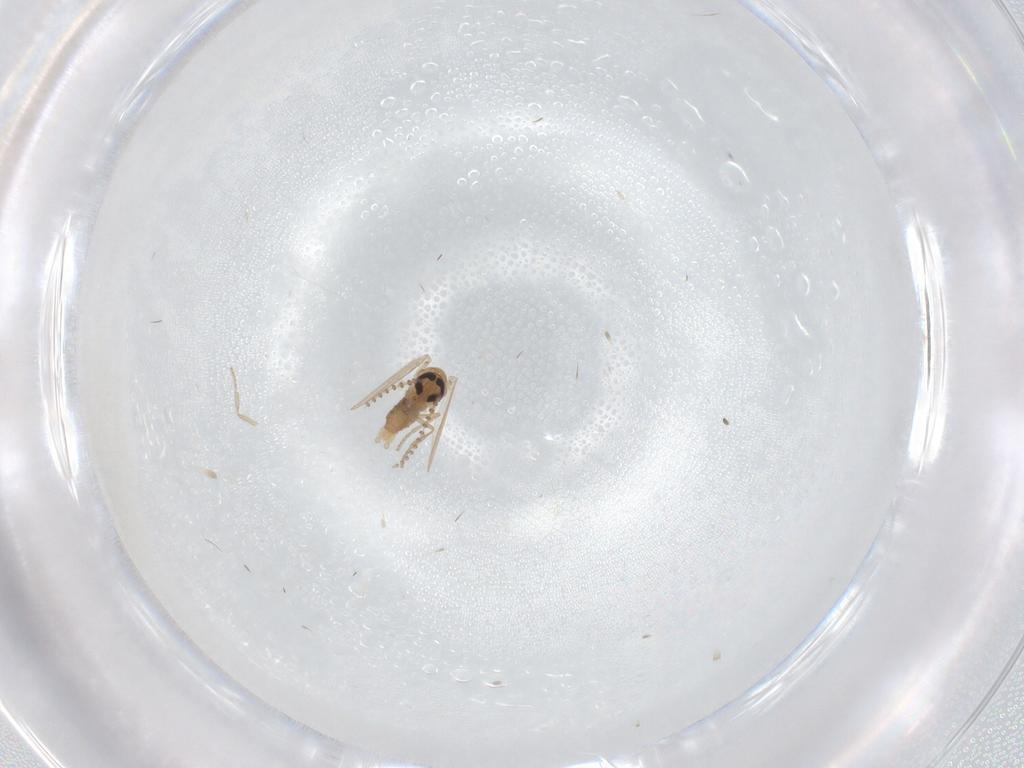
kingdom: Animalia
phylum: Arthropoda
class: Insecta
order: Diptera
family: Psychodidae
